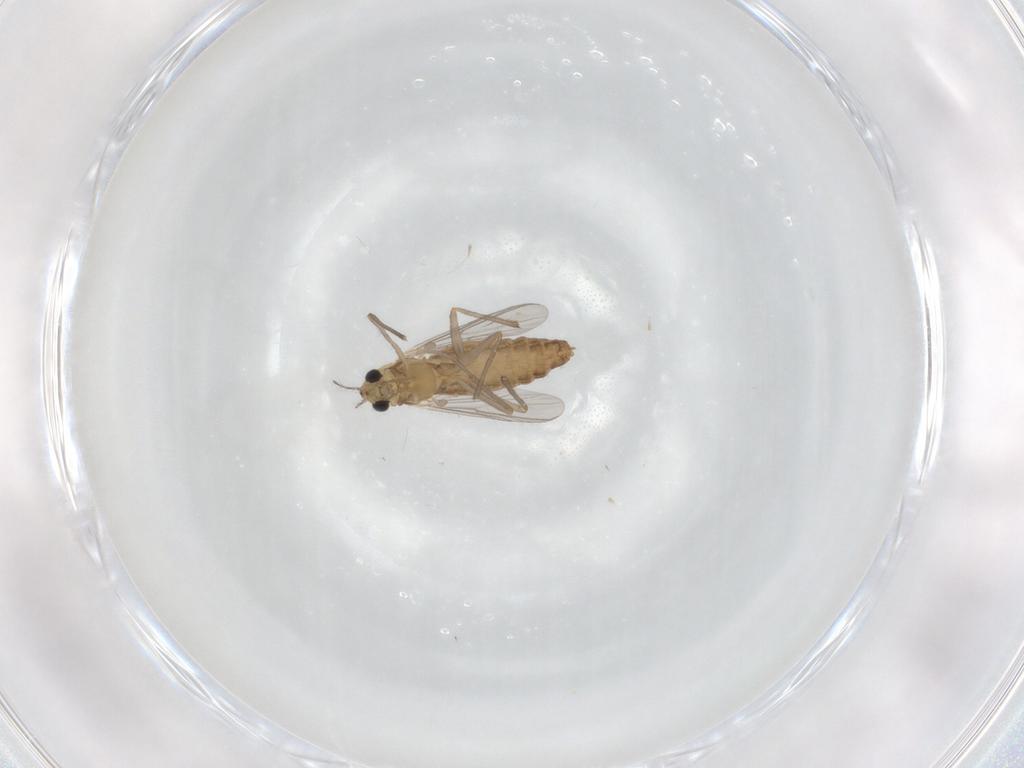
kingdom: Animalia
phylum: Arthropoda
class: Insecta
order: Diptera
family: Chironomidae
